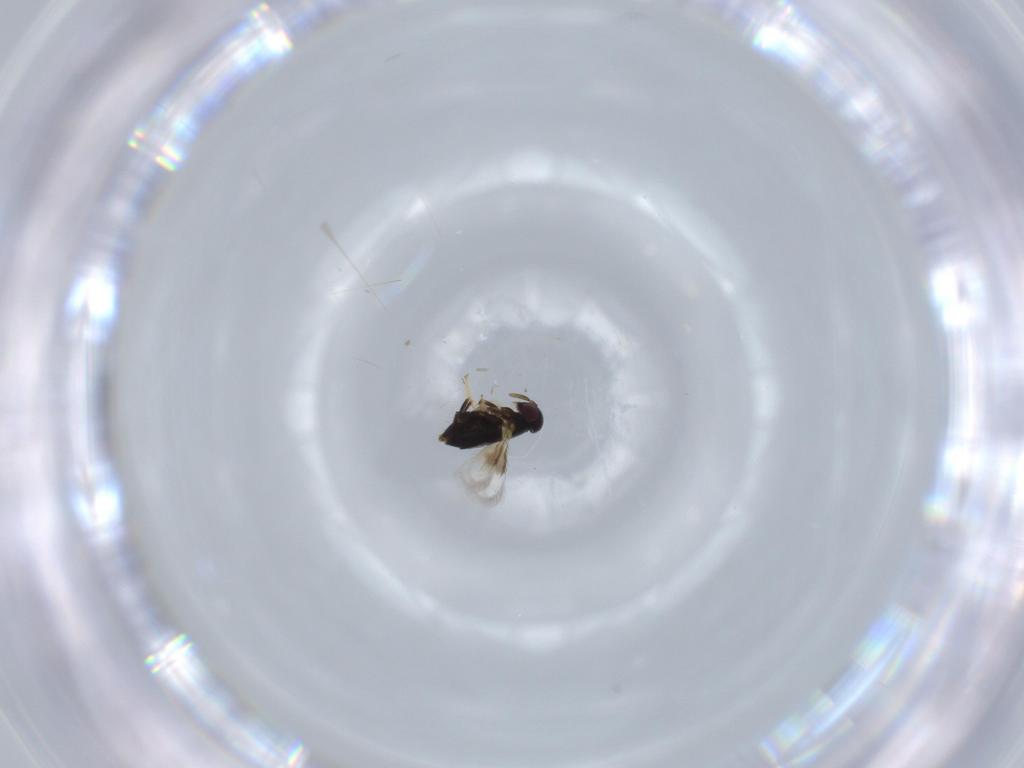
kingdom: Animalia
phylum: Arthropoda
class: Insecta
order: Hymenoptera
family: Signiphoridae
